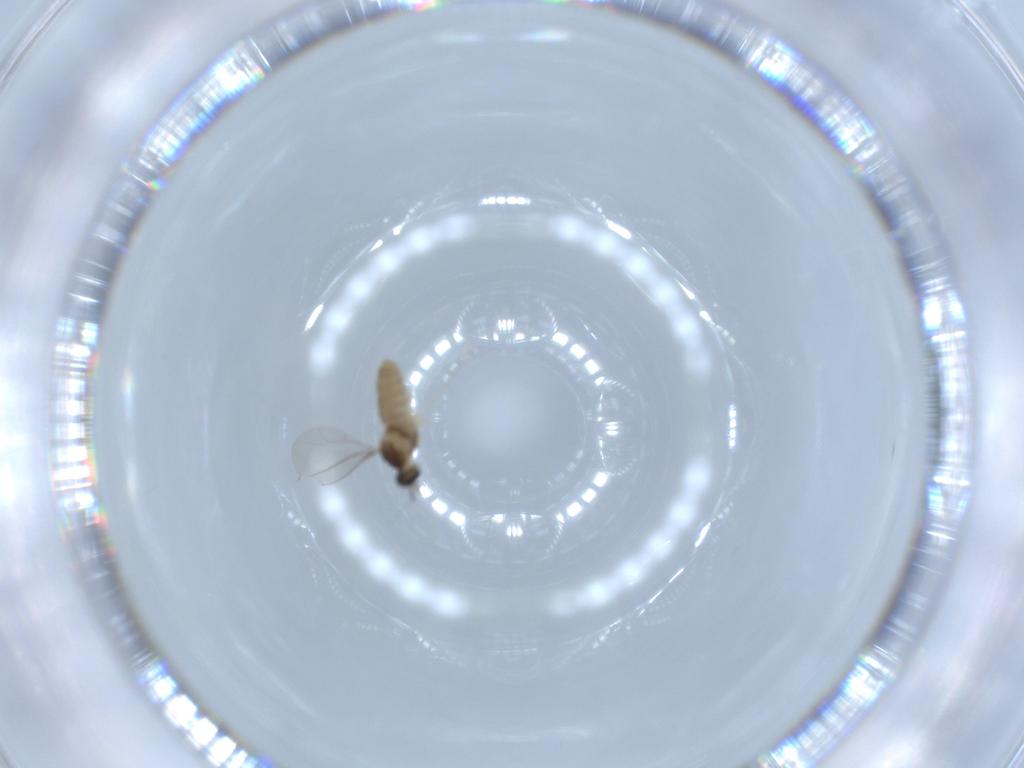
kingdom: Animalia
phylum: Arthropoda
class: Insecta
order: Diptera
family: Cecidomyiidae
